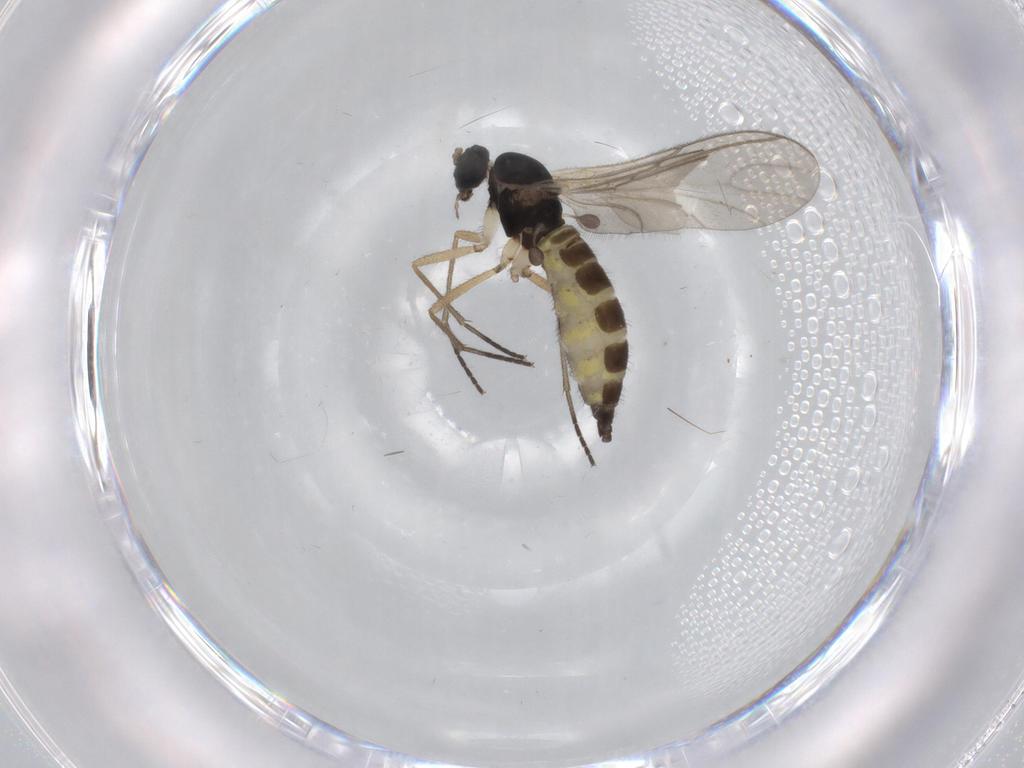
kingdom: Animalia
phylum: Arthropoda
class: Insecta
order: Diptera
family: Sciaridae
